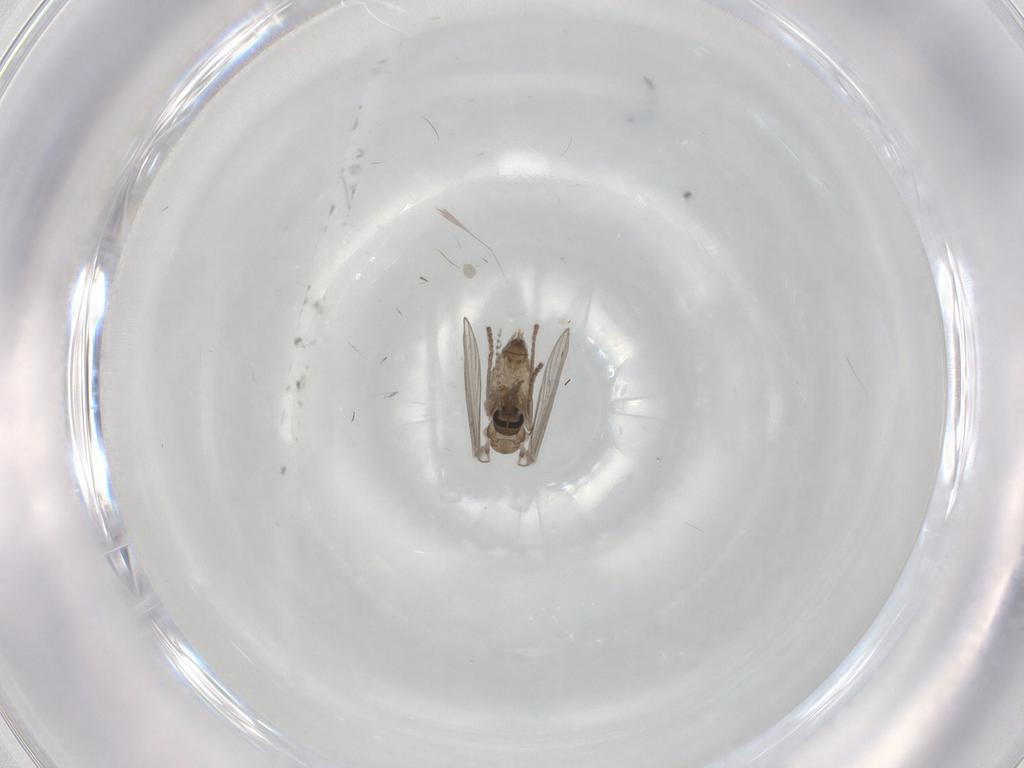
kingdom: Animalia
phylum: Arthropoda
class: Insecta
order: Diptera
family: Psychodidae
